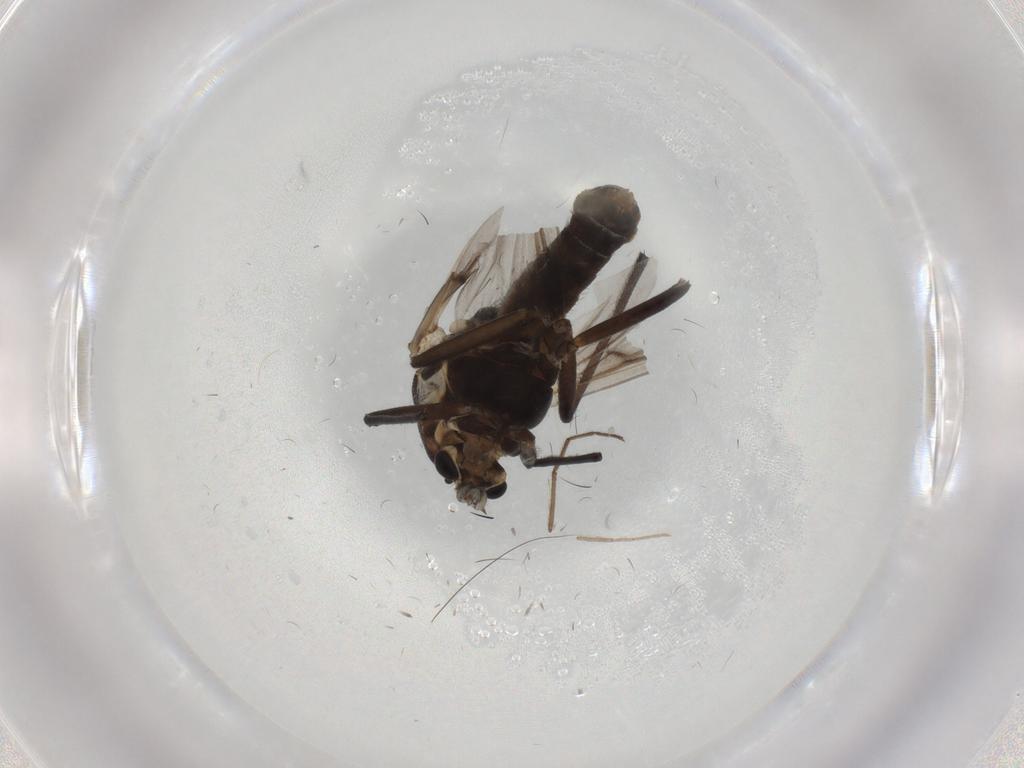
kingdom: Animalia
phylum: Arthropoda
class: Insecta
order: Diptera
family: Chironomidae
